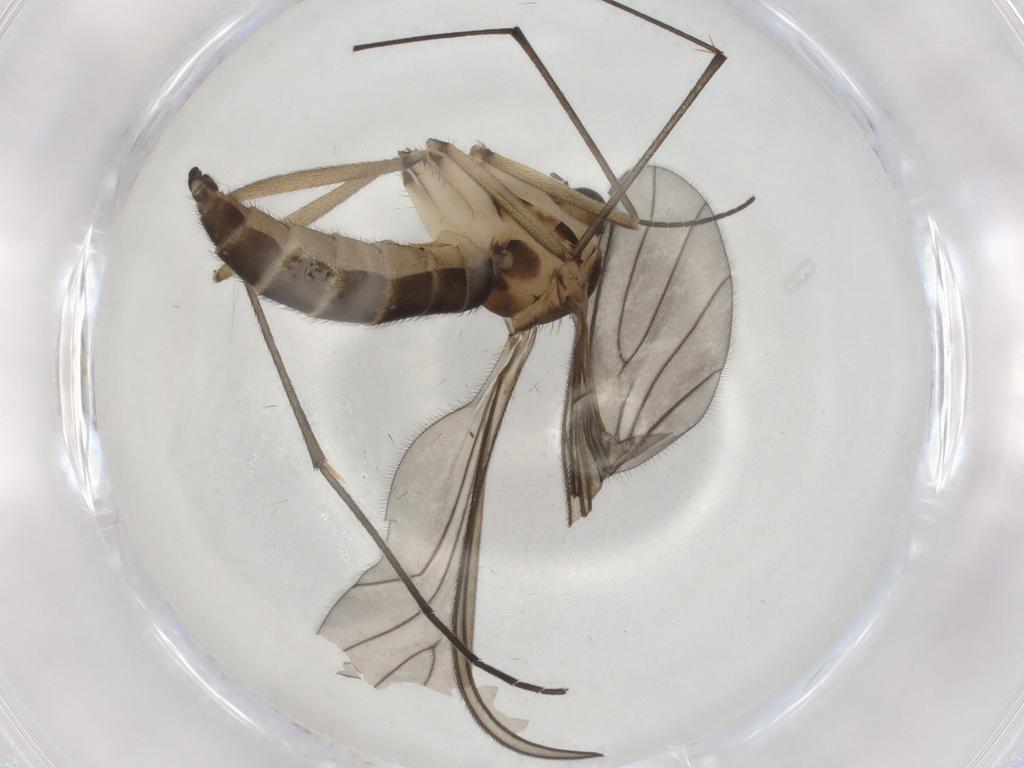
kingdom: Animalia
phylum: Arthropoda
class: Insecta
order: Diptera
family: Sciaridae
